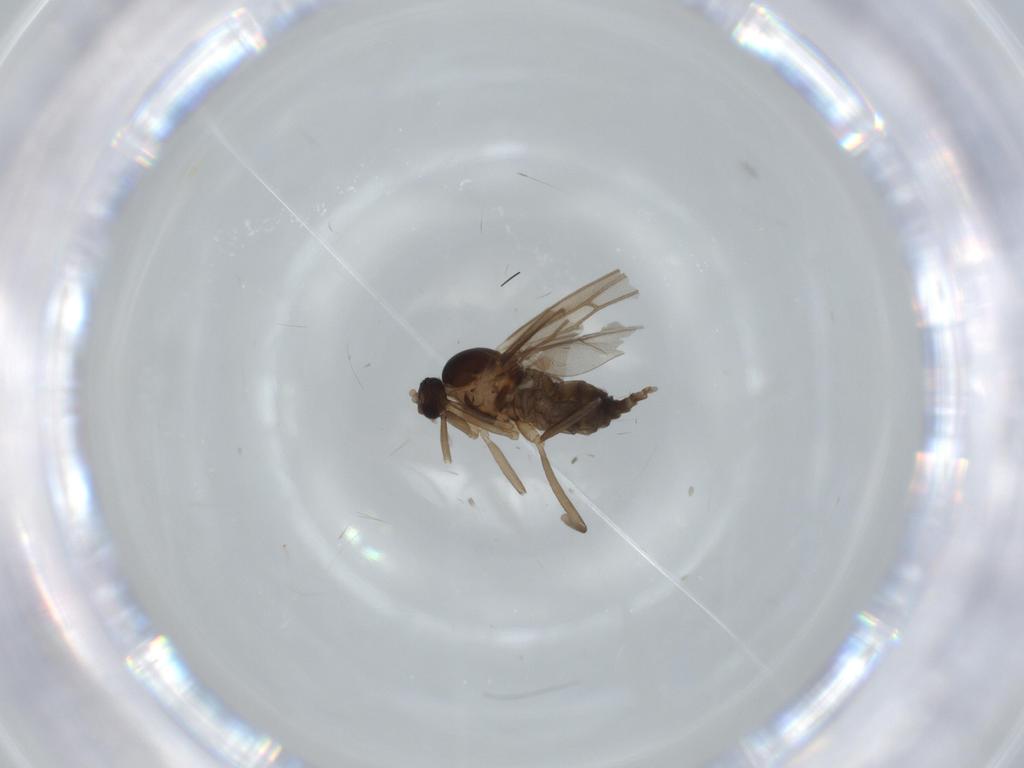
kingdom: Animalia
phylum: Arthropoda
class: Insecta
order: Diptera
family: Cecidomyiidae
